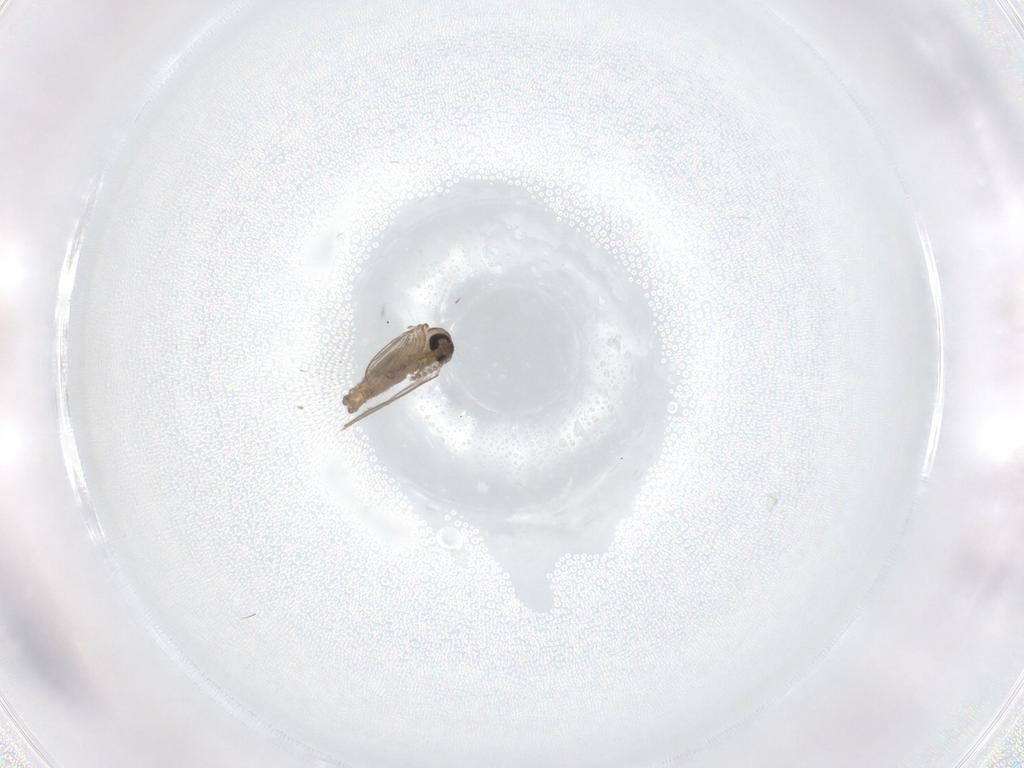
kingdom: Animalia
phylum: Arthropoda
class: Insecta
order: Diptera
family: Psychodidae
